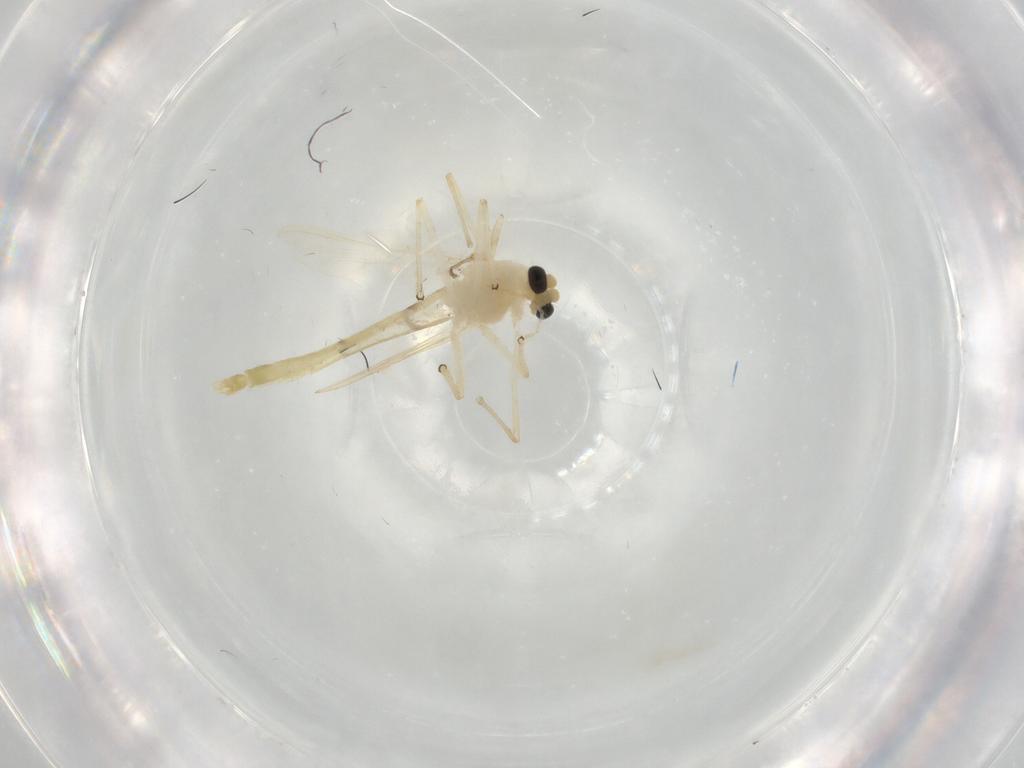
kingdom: Animalia
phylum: Arthropoda
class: Insecta
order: Diptera
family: Chironomidae
